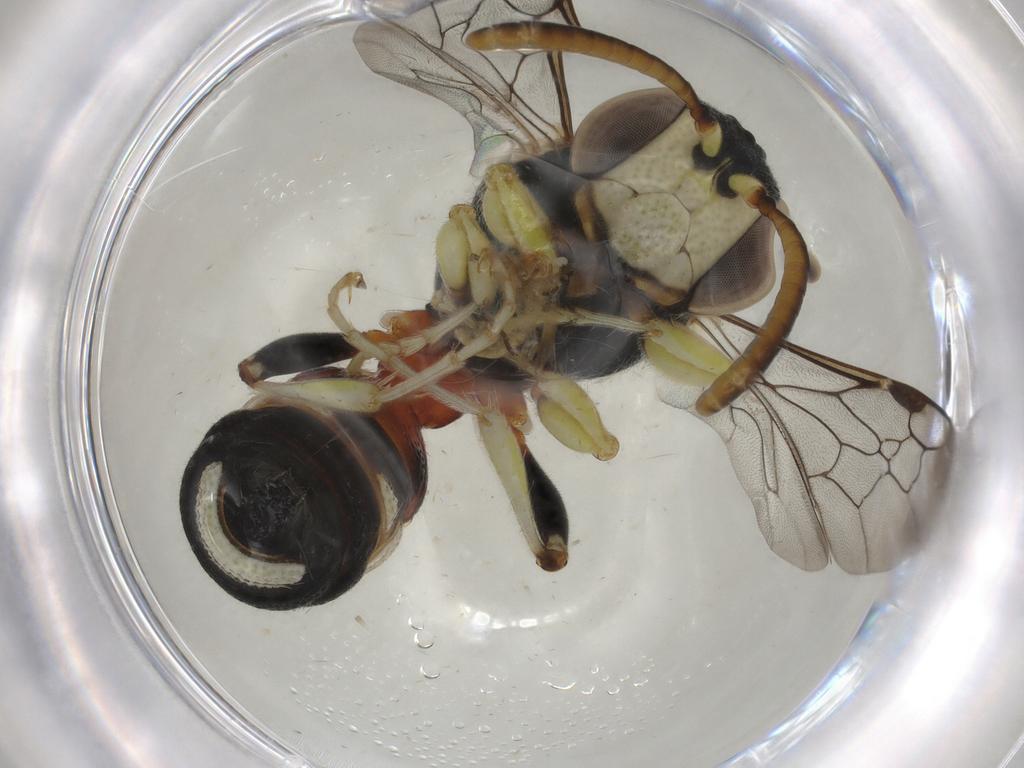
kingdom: Animalia
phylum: Arthropoda
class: Insecta
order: Hymenoptera
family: Crabronidae
